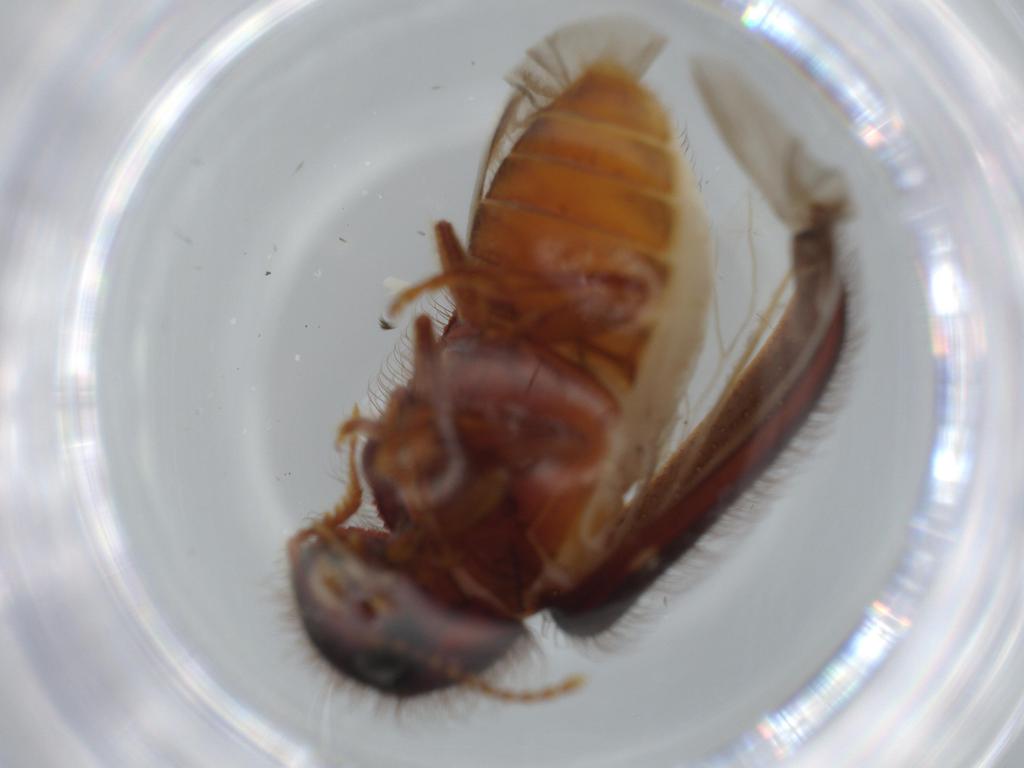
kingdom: Animalia
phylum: Arthropoda
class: Insecta
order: Coleoptera
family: Rhadalidae
